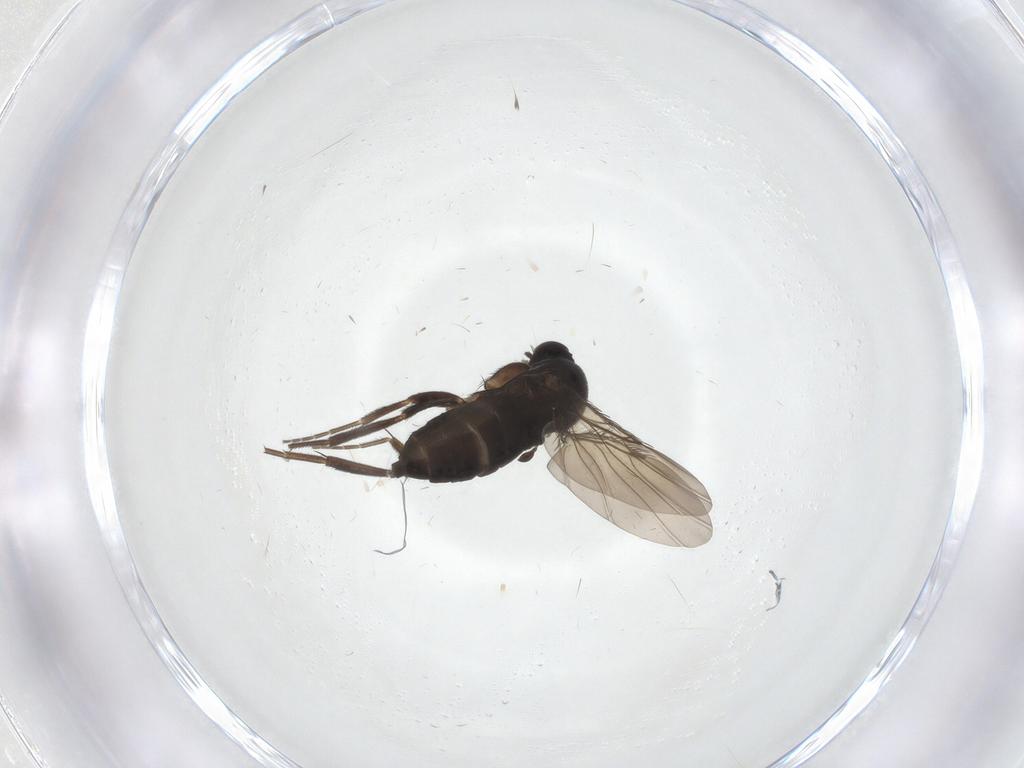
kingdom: Animalia
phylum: Arthropoda
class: Insecta
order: Diptera
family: Phoridae
